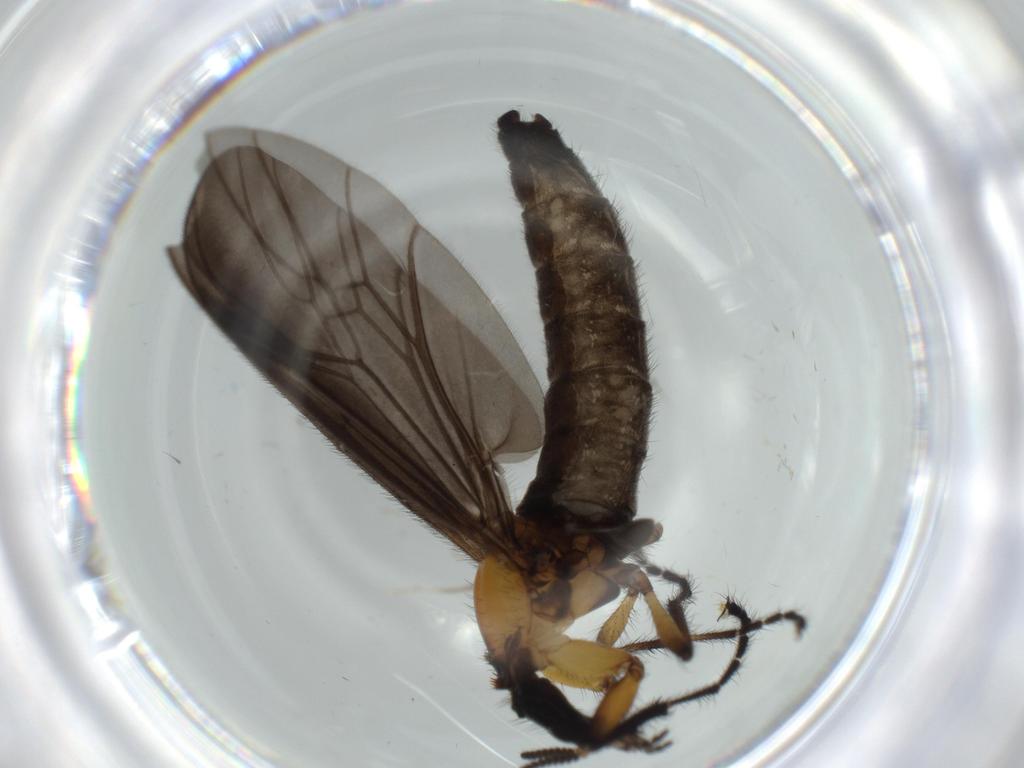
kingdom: Animalia
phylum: Arthropoda
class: Insecta
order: Diptera
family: Bibionidae
